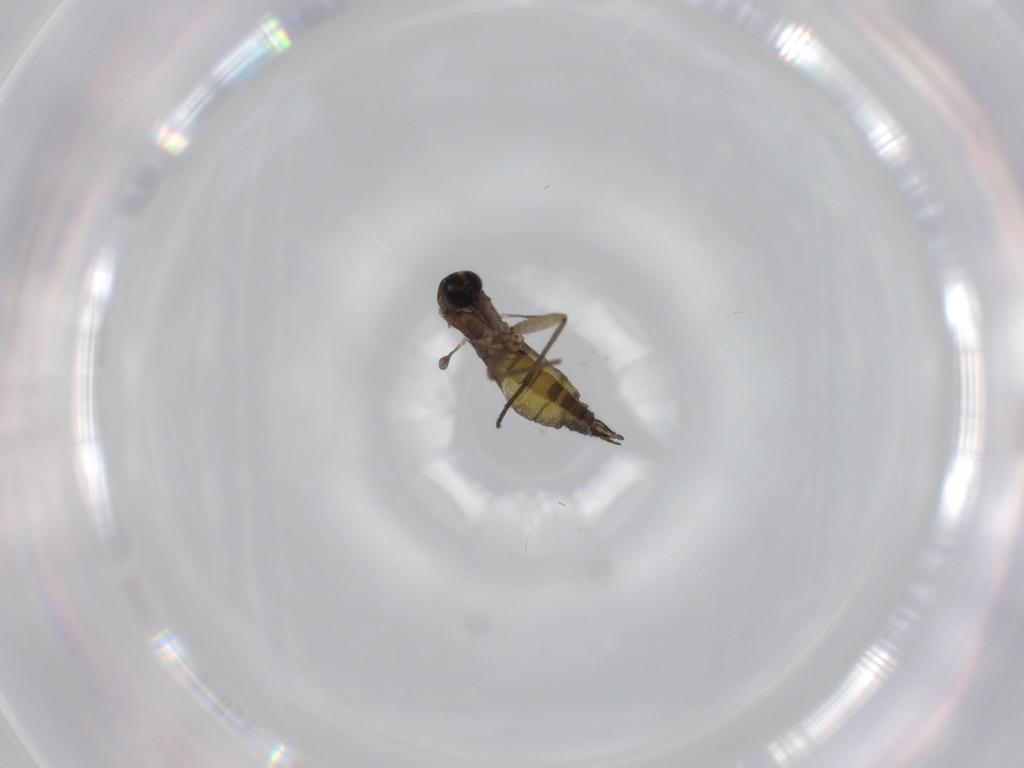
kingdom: Animalia
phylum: Arthropoda
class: Insecta
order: Diptera
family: Sciaridae
